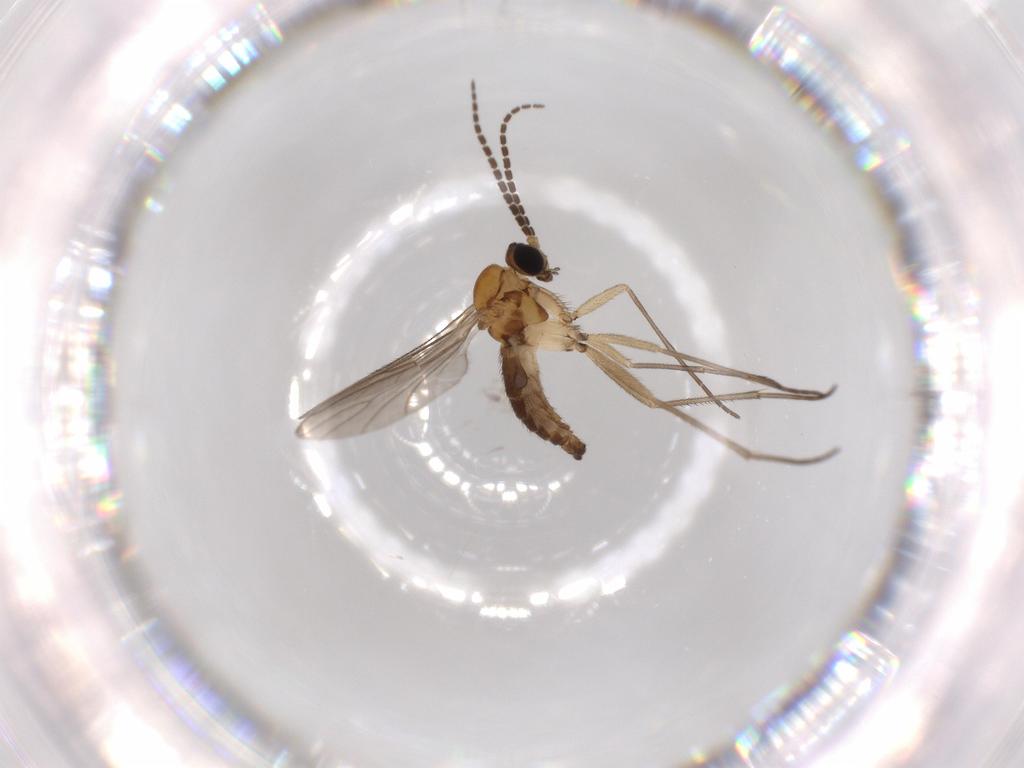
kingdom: Animalia
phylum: Arthropoda
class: Insecta
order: Diptera
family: Sciaridae
